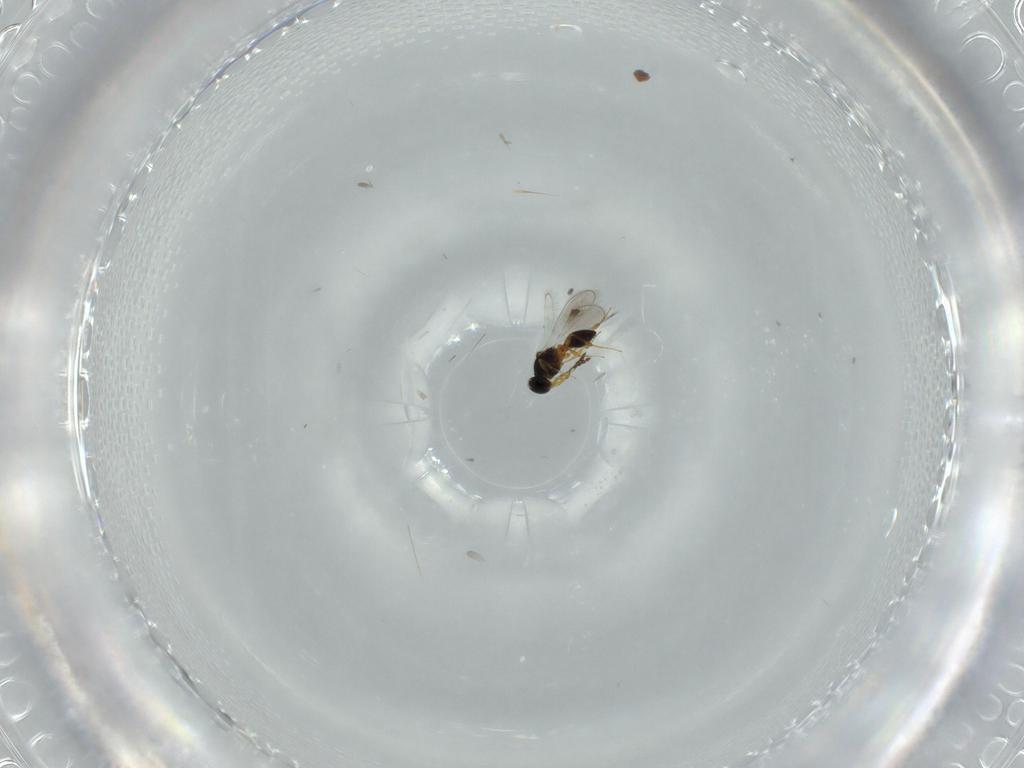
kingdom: Animalia
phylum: Arthropoda
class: Insecta
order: Hymenoptera
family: Platygastridae
